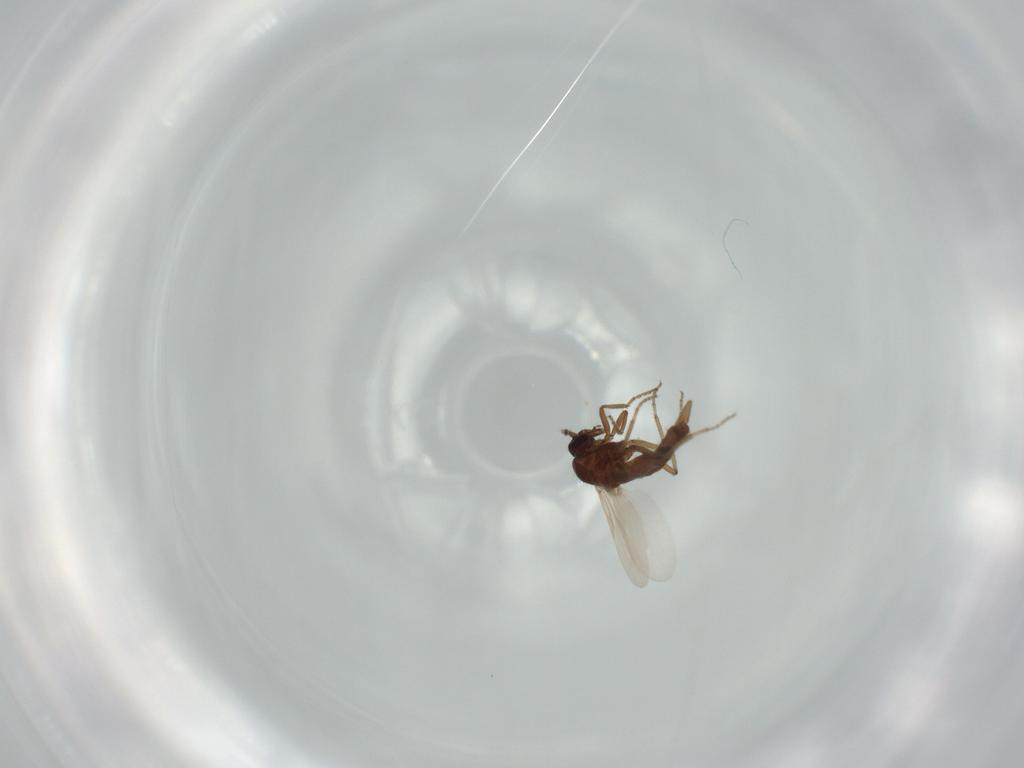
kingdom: Animalia
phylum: Arthropoda
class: Insecta
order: Diptera
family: Ceratopogonidae
